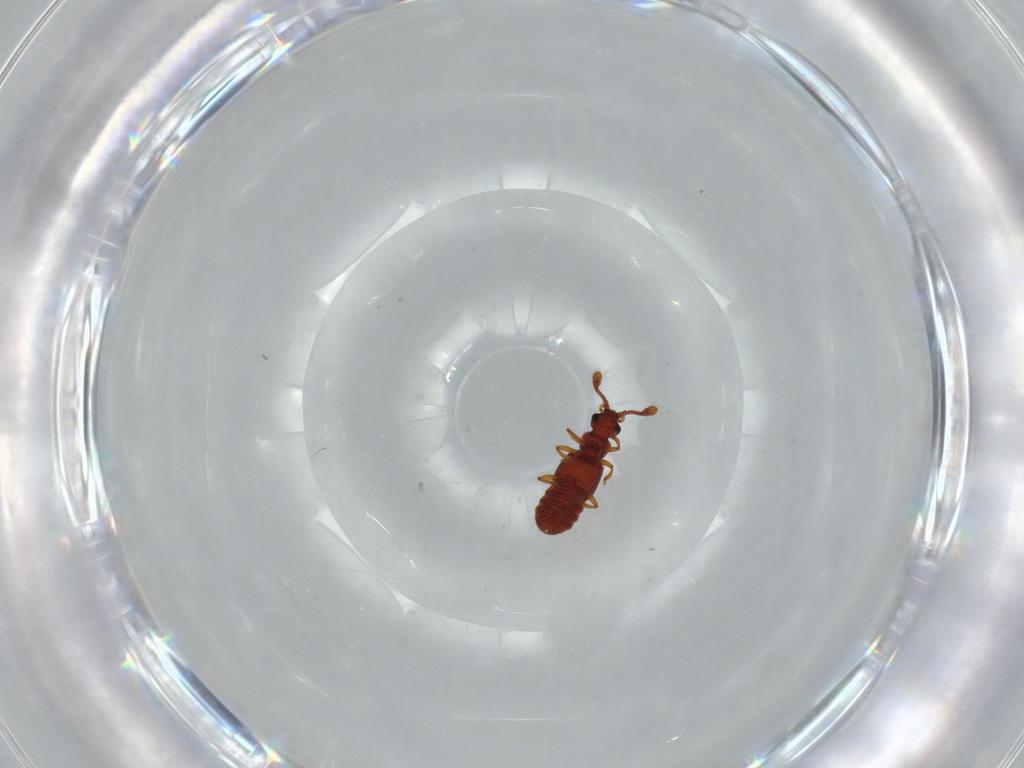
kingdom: Animalia
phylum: Arthropoda
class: Insecta
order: Coleoptera
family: Staphylinidae
